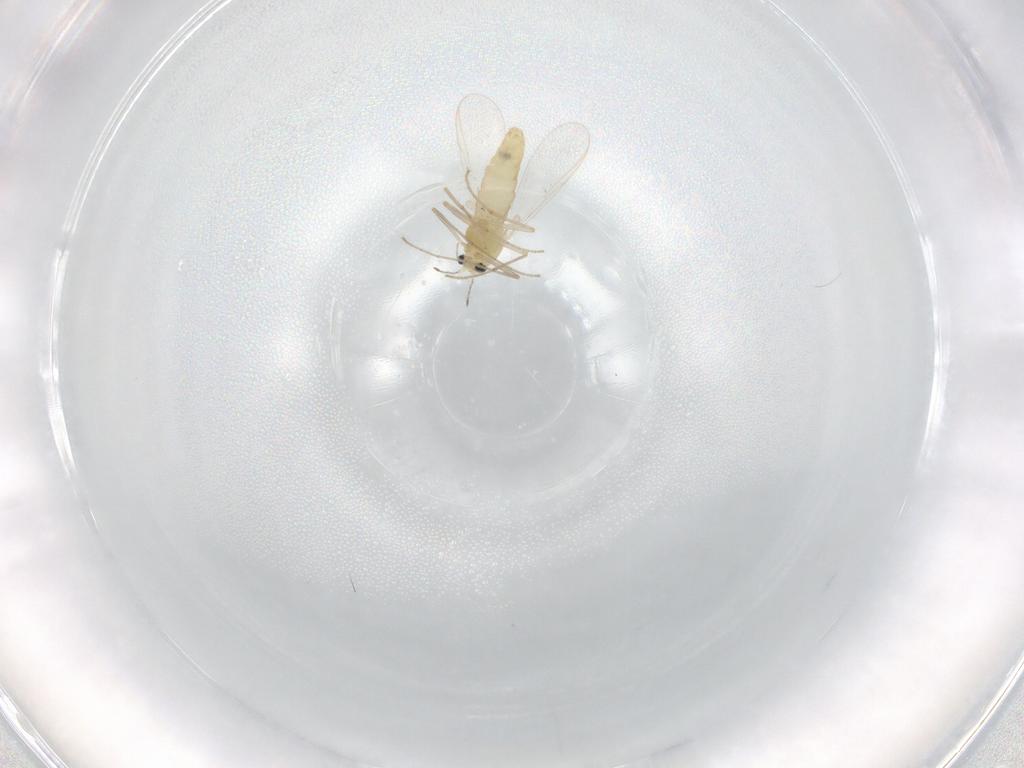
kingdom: Animalia
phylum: Arthropoda
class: Insecta
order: Diptera
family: Chironomidae
